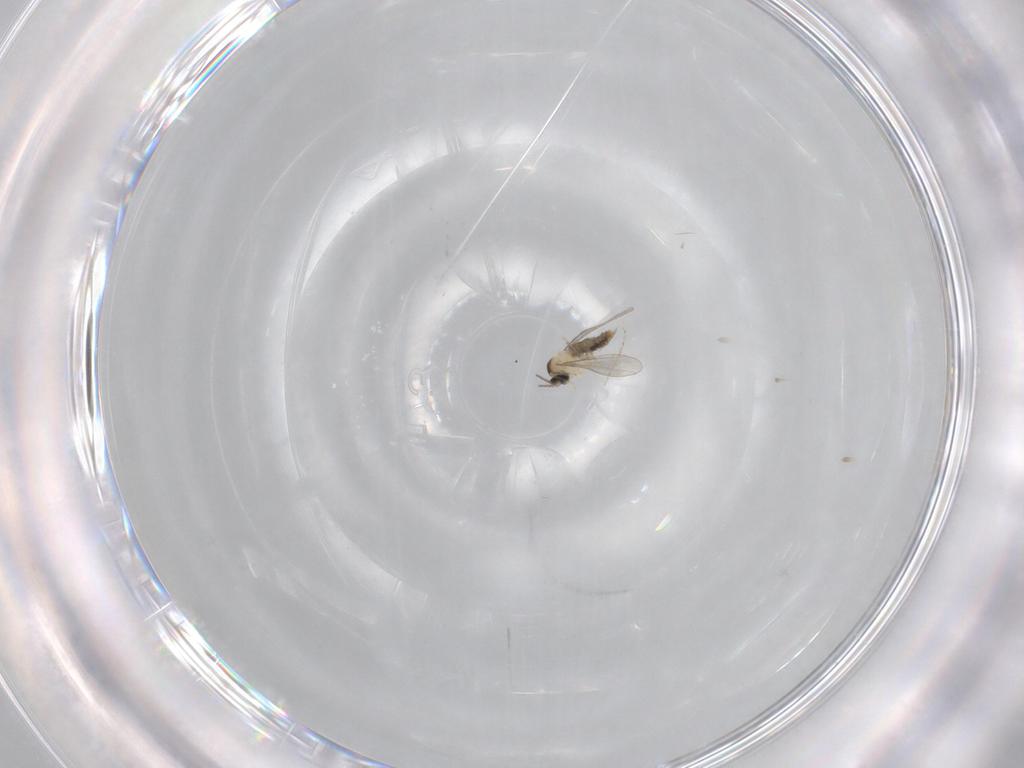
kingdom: Animalia
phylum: Arthropoda
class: Insecta
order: Diptera
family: Cecidomyiidae
